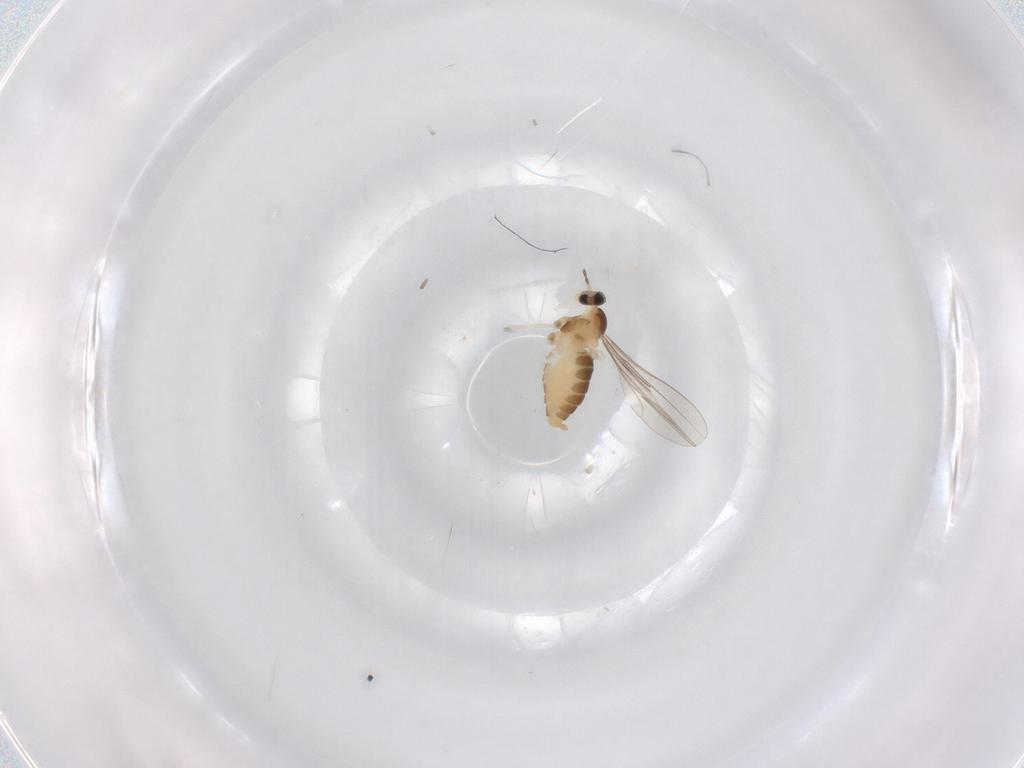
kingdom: Animalia
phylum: Arthropoda
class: Insecta
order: Diptera
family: Cecidomyiidae
